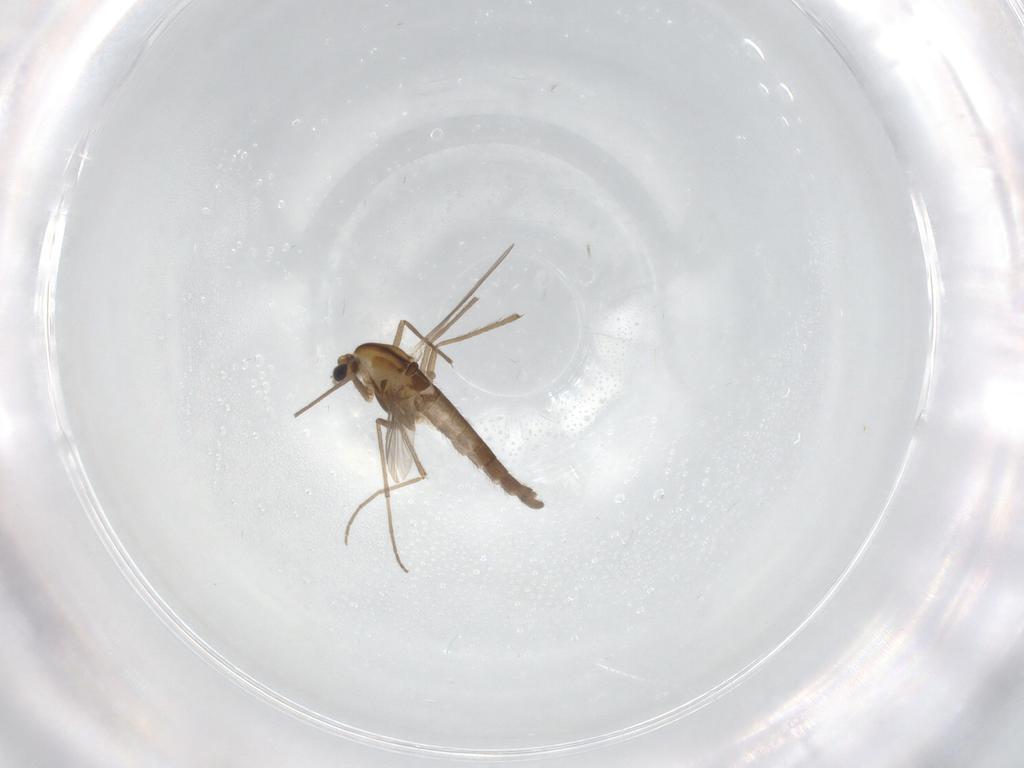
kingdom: Animalia
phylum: Arthropoda
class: Insecta
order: Diptera
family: Chironomidae
